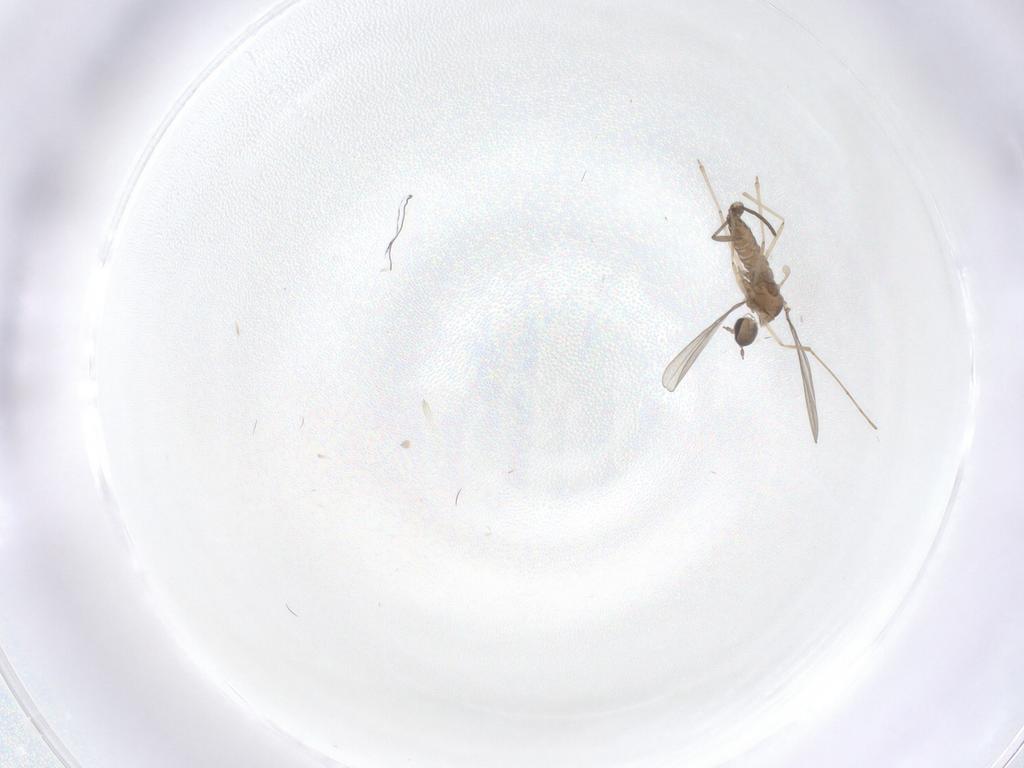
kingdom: Animalia
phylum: Arthropoda
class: Insecta
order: Diptera
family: Cecidomyiidae
